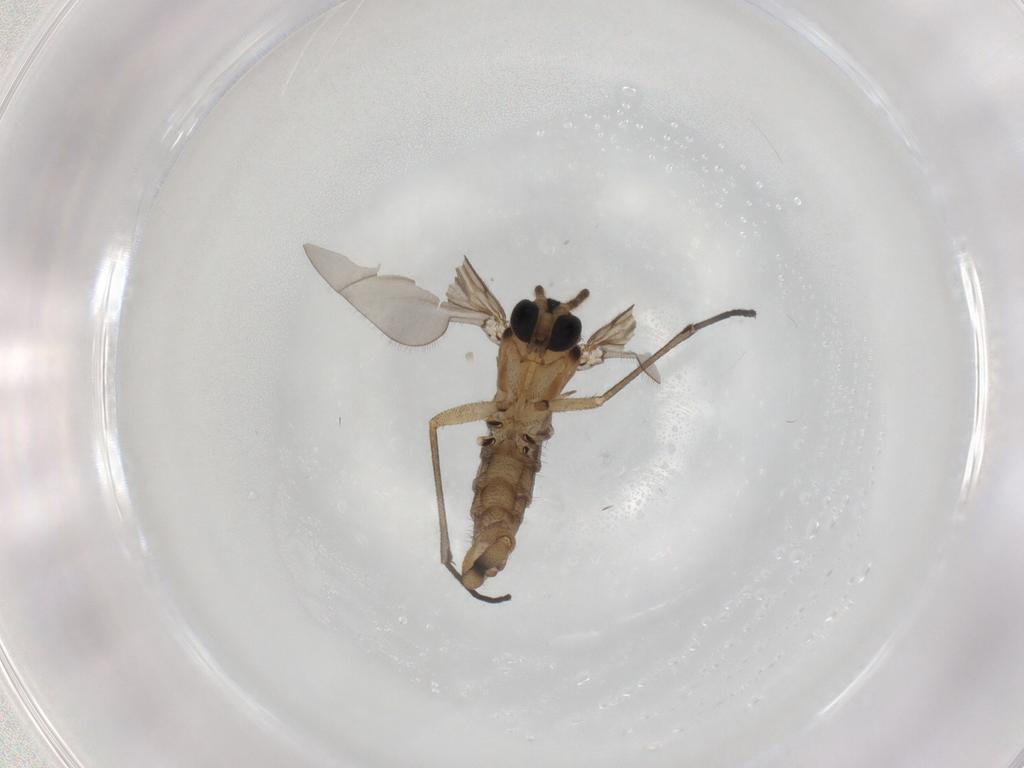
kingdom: Animalia
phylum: Arthropoda
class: Insecta
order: Diptera
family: Sciaridae
